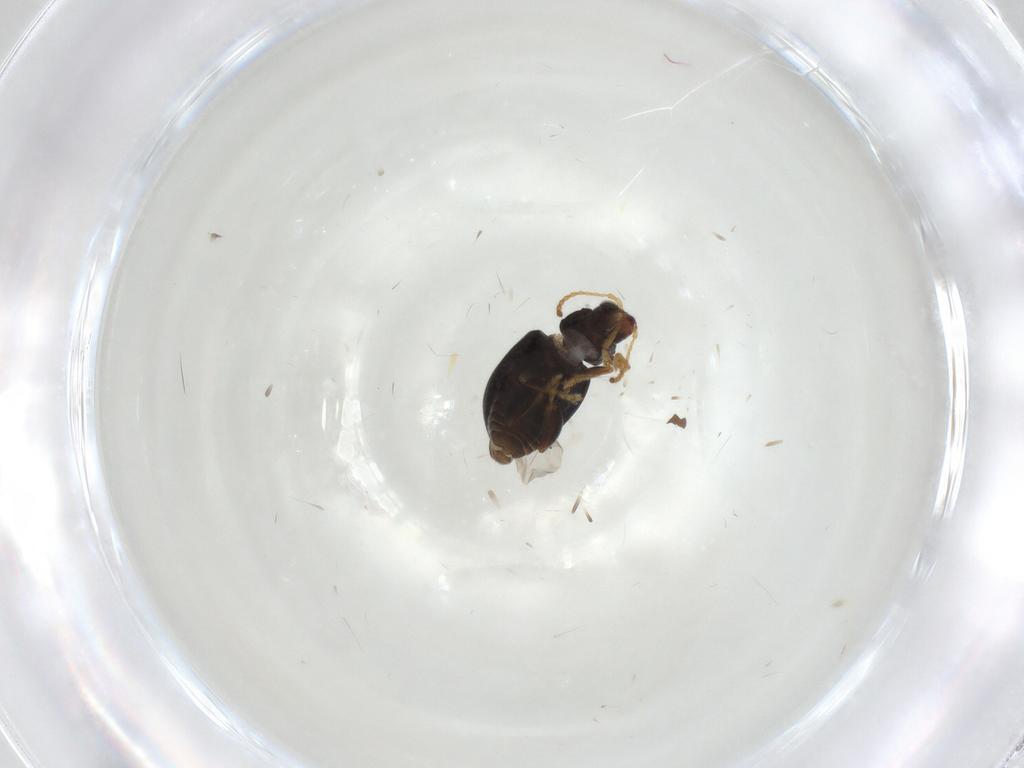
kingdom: Animalia
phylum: Arthropoda
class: Insecta
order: Coleoptera
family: Chrysomelidae
